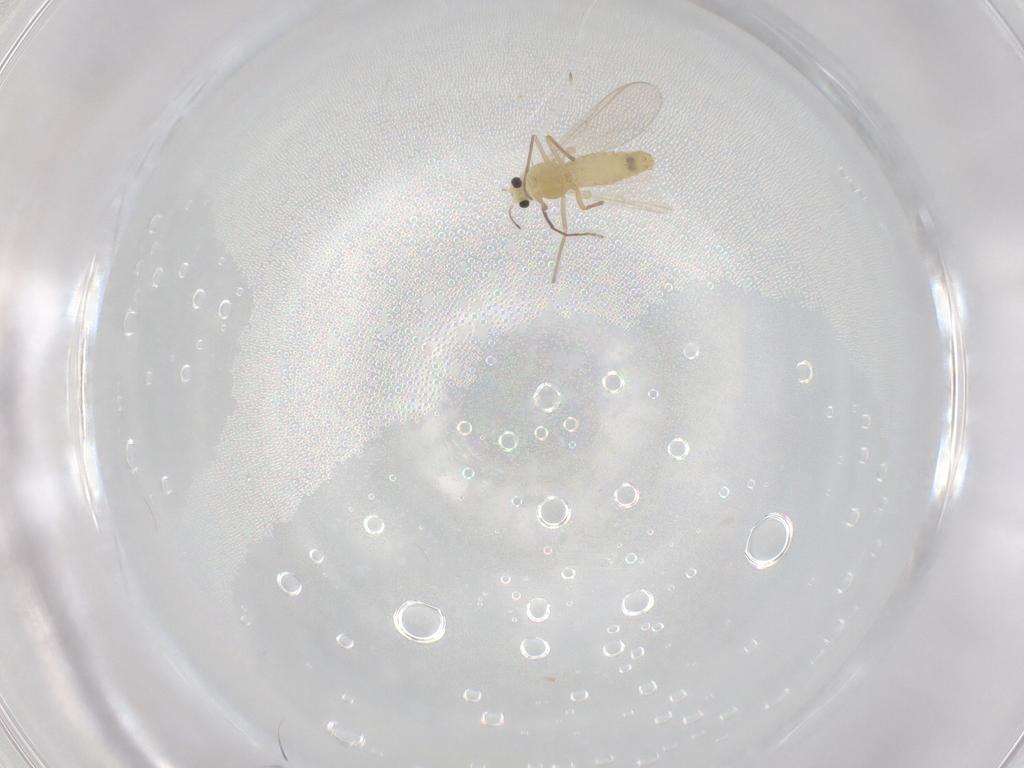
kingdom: Animalia
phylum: Arthropoda
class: Insecta
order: Diptera
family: Chironomidae
